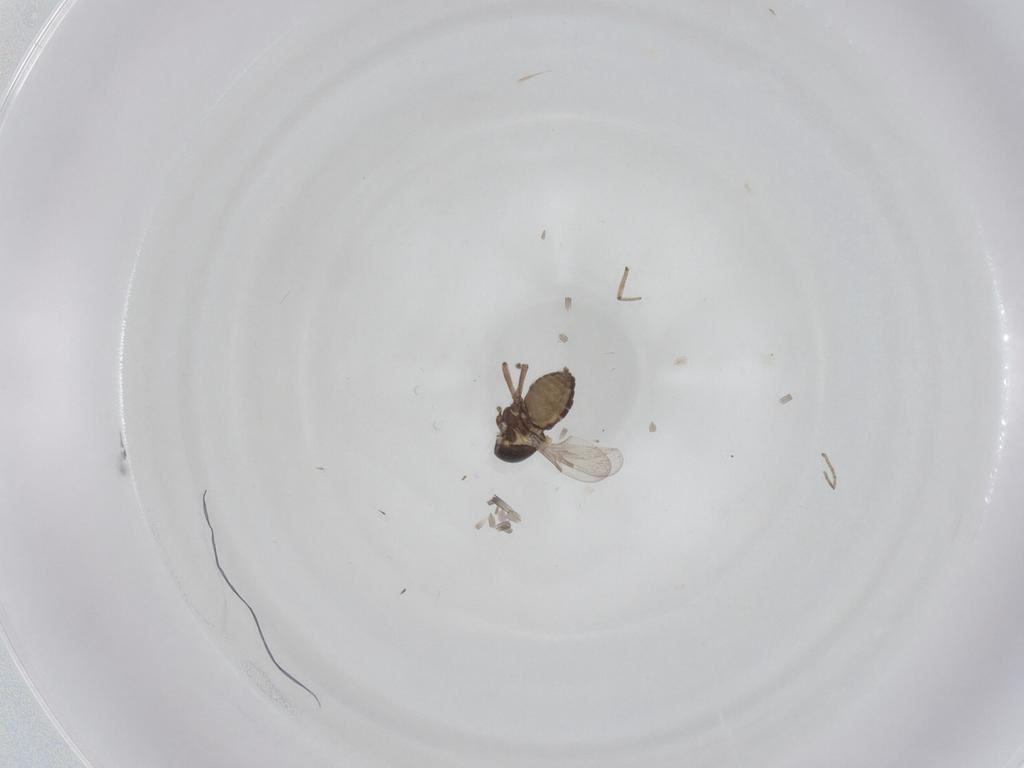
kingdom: Animalia
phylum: Arthropoda
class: Insecta
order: Diptera
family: Ceratopogonidae
